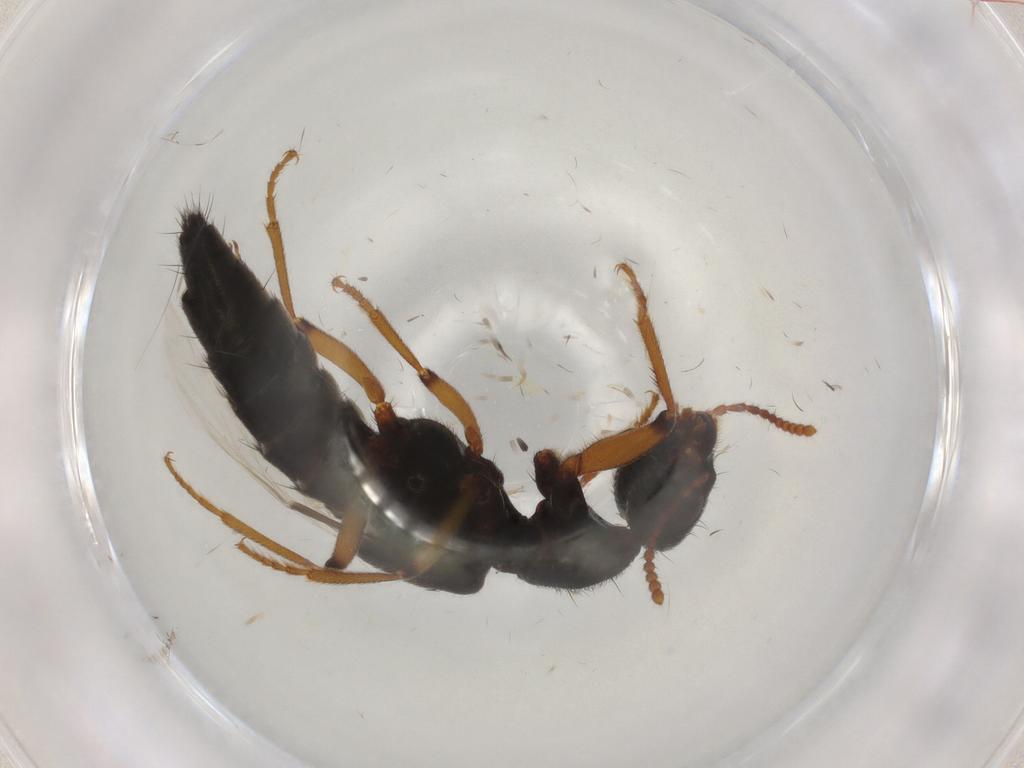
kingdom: Animalia
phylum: Arthropoda
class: Insecta
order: Coleoptera
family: Staphylinidae
